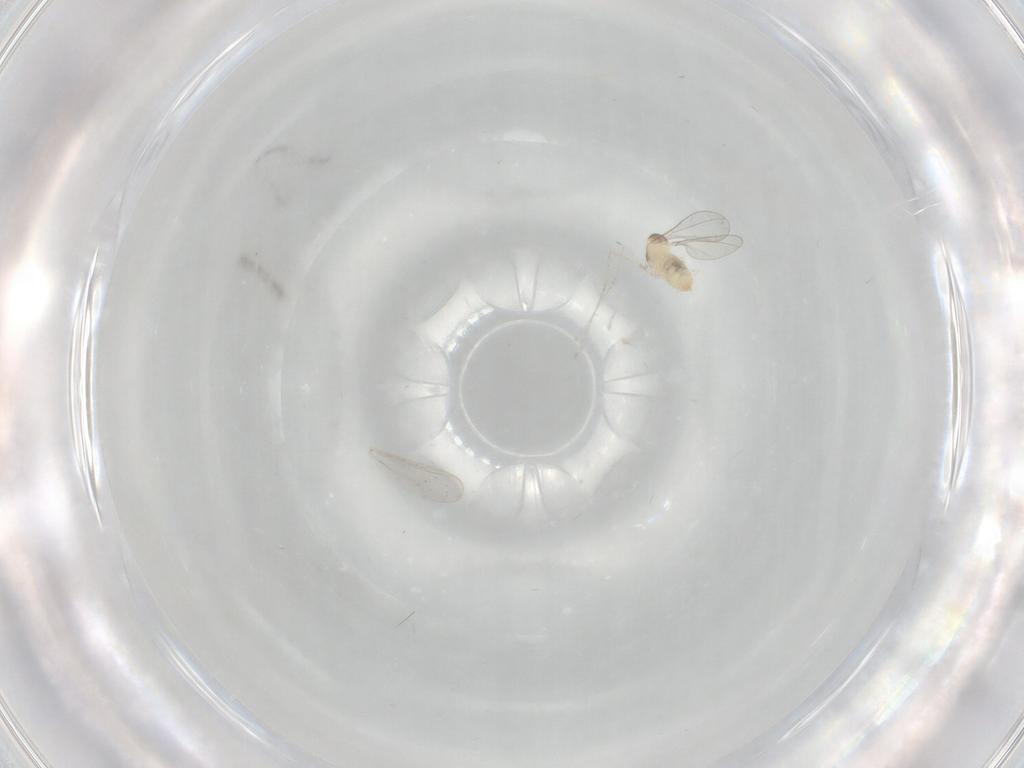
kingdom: Animalia
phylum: Arthropoda
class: Insecta
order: Diptera
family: Cecidomyiidae
